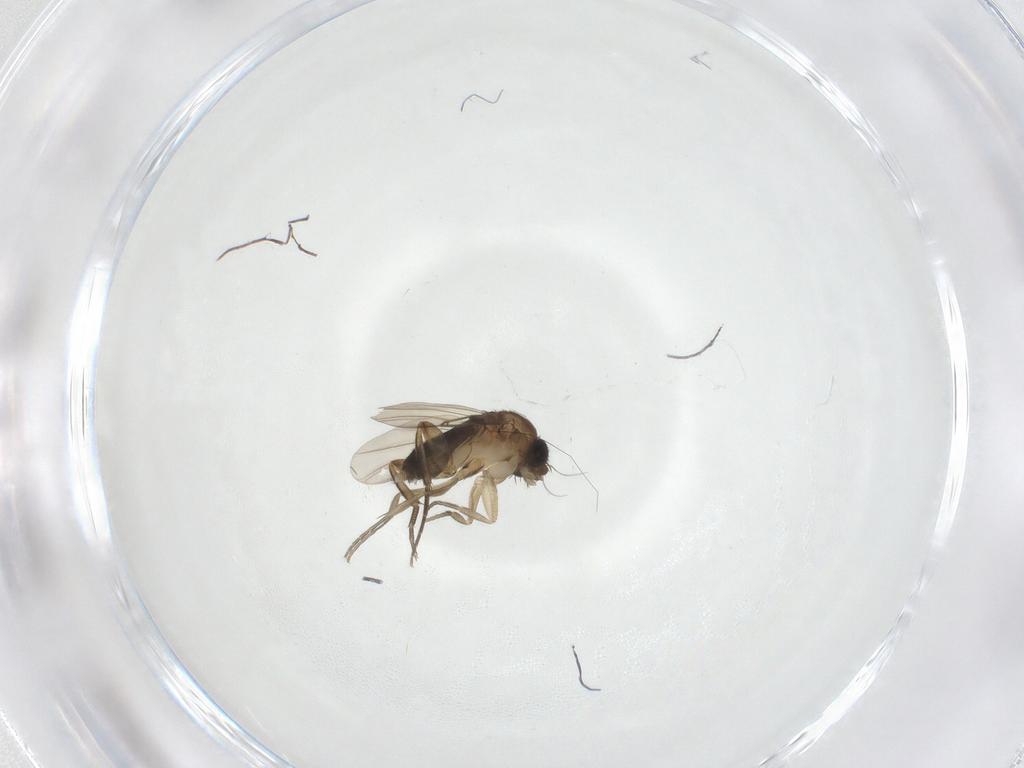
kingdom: Animalia
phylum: Arthropoda
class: Insecta
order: Diptera
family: Phoridae
